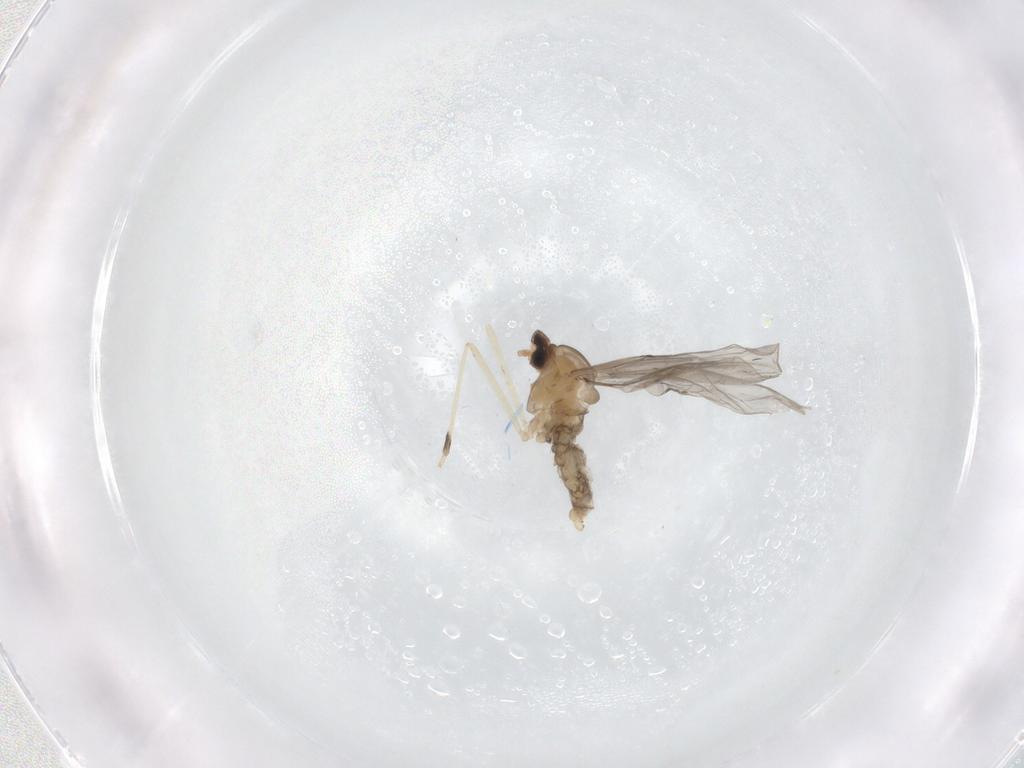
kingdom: Animalia
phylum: Arthropoda
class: Insecta
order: Diptera
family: Cecidomyiidae
